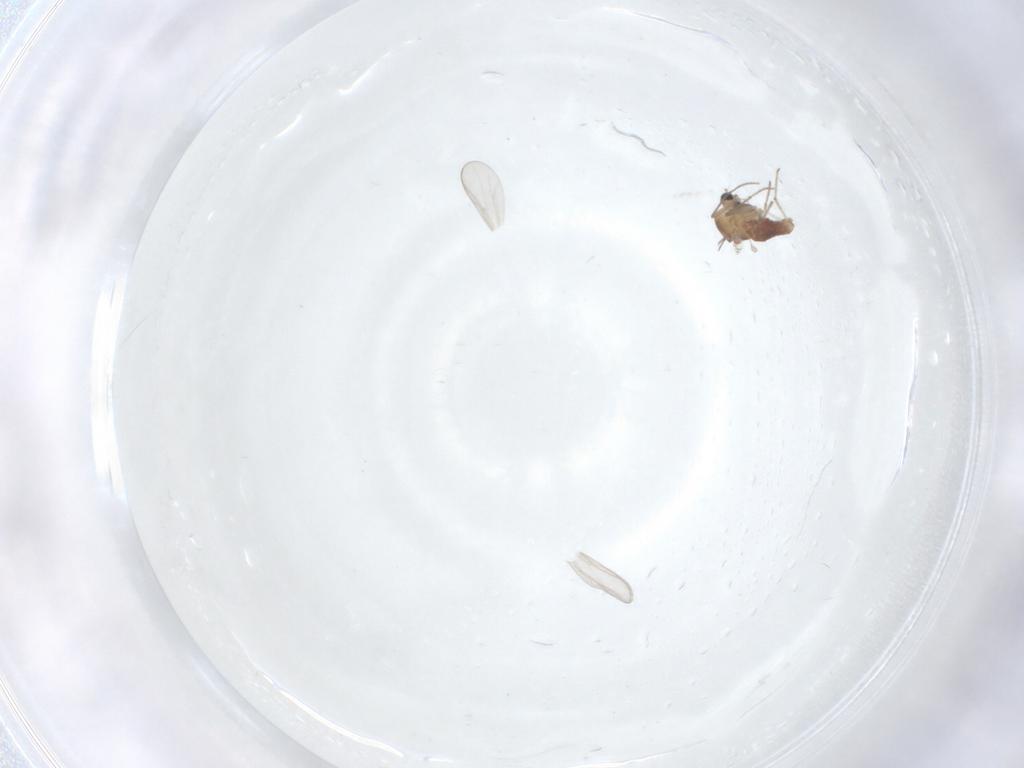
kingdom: Animalia
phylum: Arthropoda
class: Insecta
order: Diptera
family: Chironomidae
